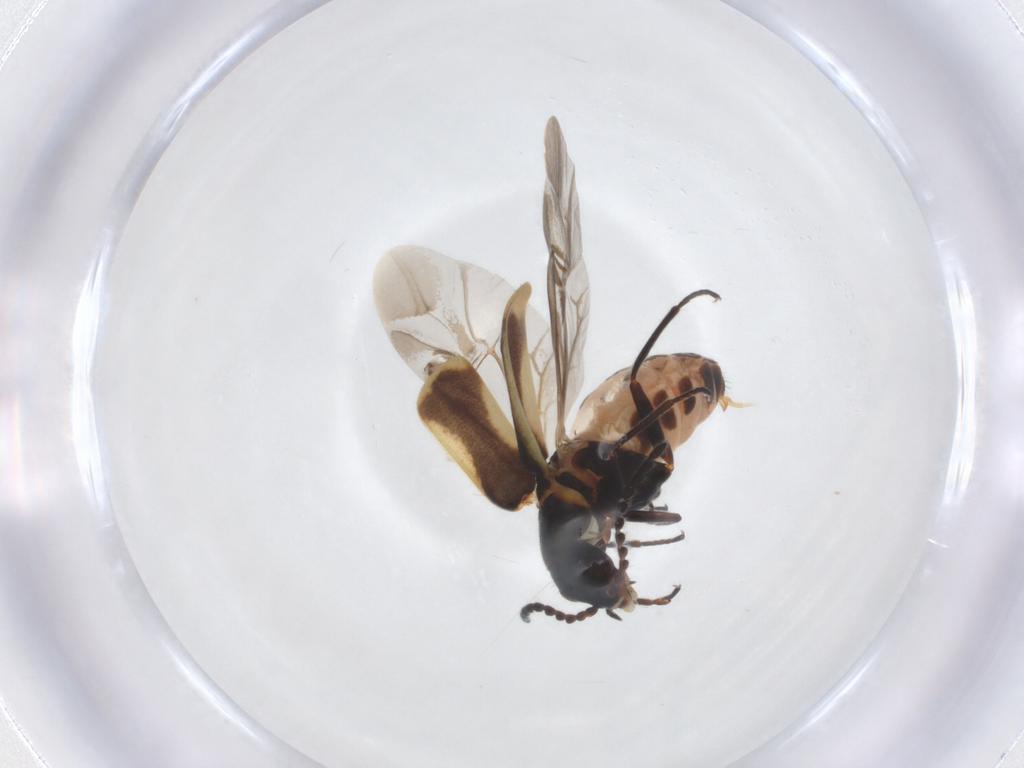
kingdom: Animalia
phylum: Arthropoda
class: Insecta
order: Coleoptera
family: Melyridae
